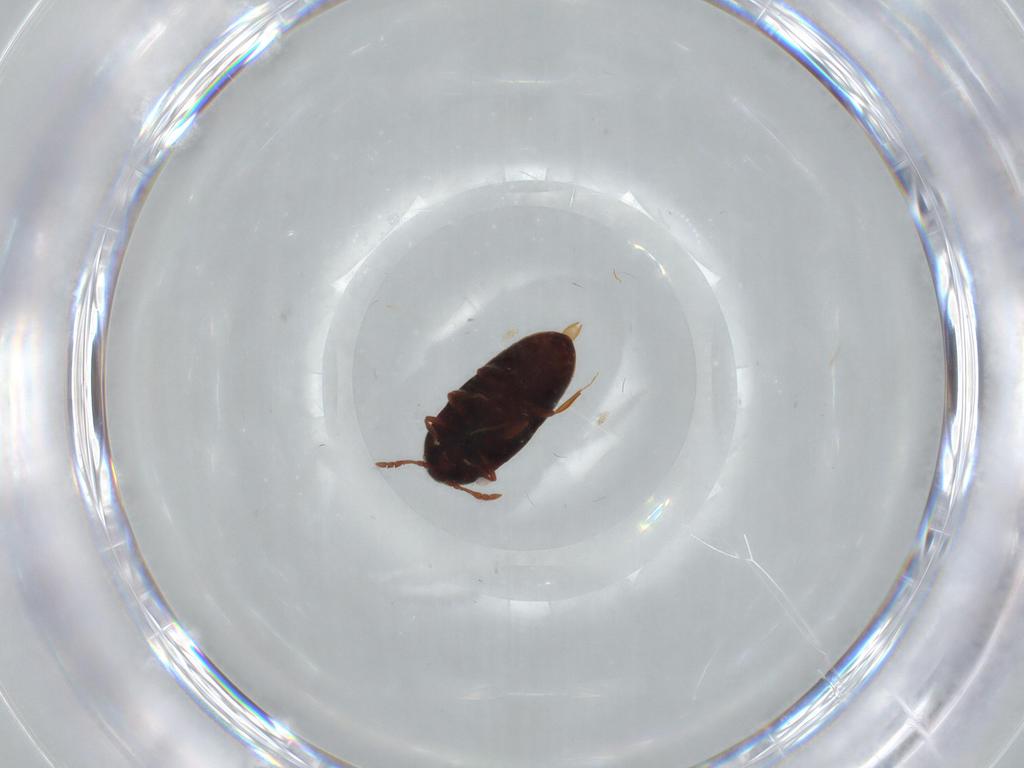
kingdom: Animalia
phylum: Arthropoda
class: Insecta
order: Coleoptera
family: Throscidae
